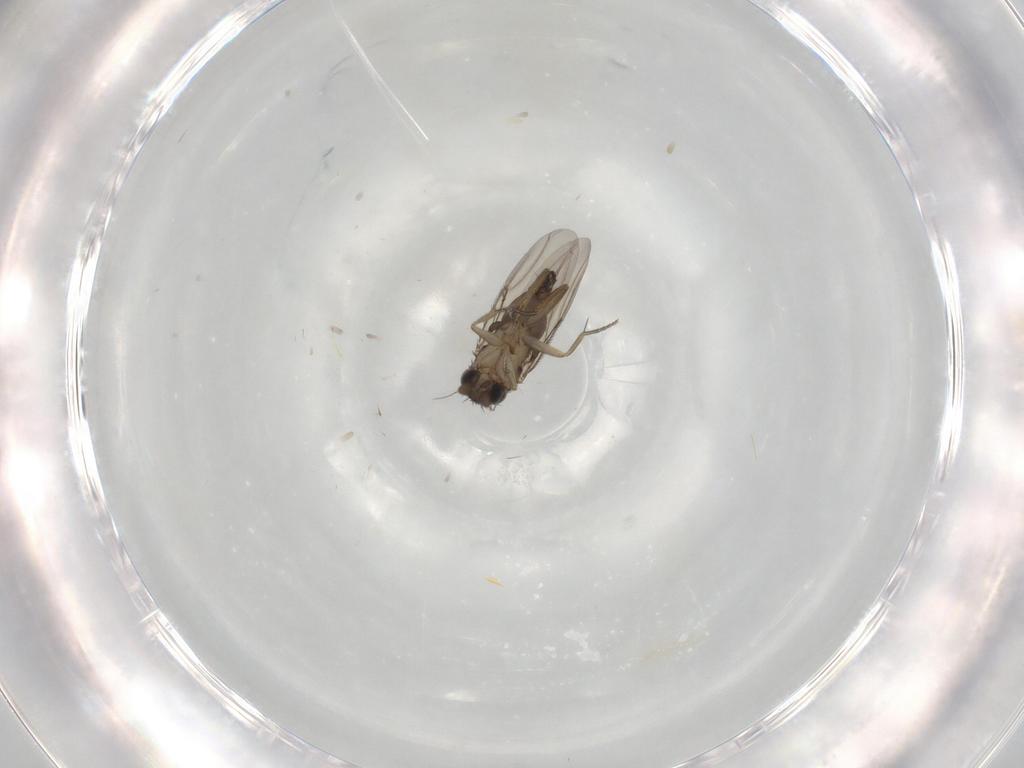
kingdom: Animalia
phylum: Arthropoda
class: Insecta
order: Diptera
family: Phoridae
